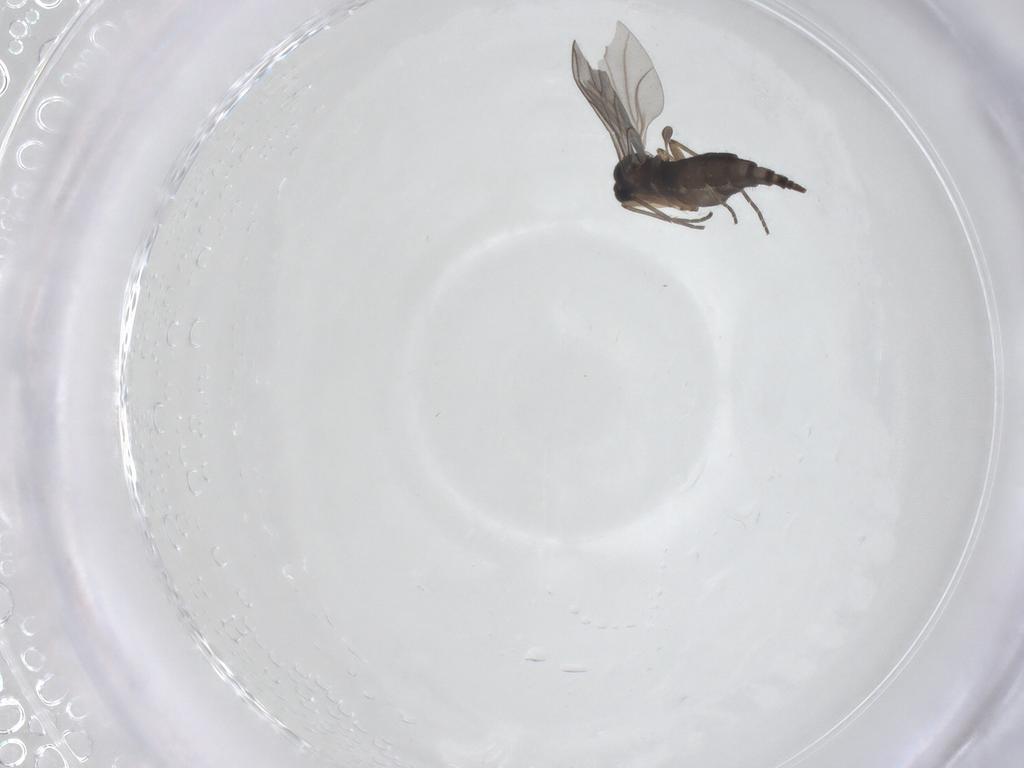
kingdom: Animalia
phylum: Arthropoda
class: Insecta
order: Diptera
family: Sciaridae
